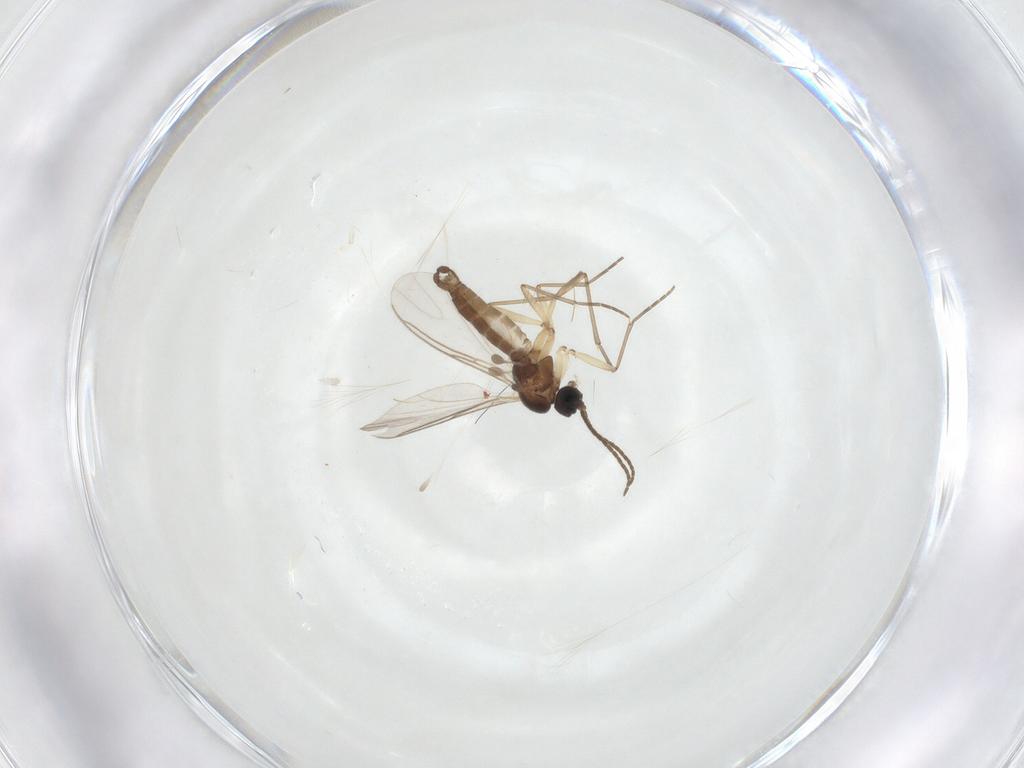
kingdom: Animalia
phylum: Arthropoda
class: Insecta
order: Diptera
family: Sciaridae
